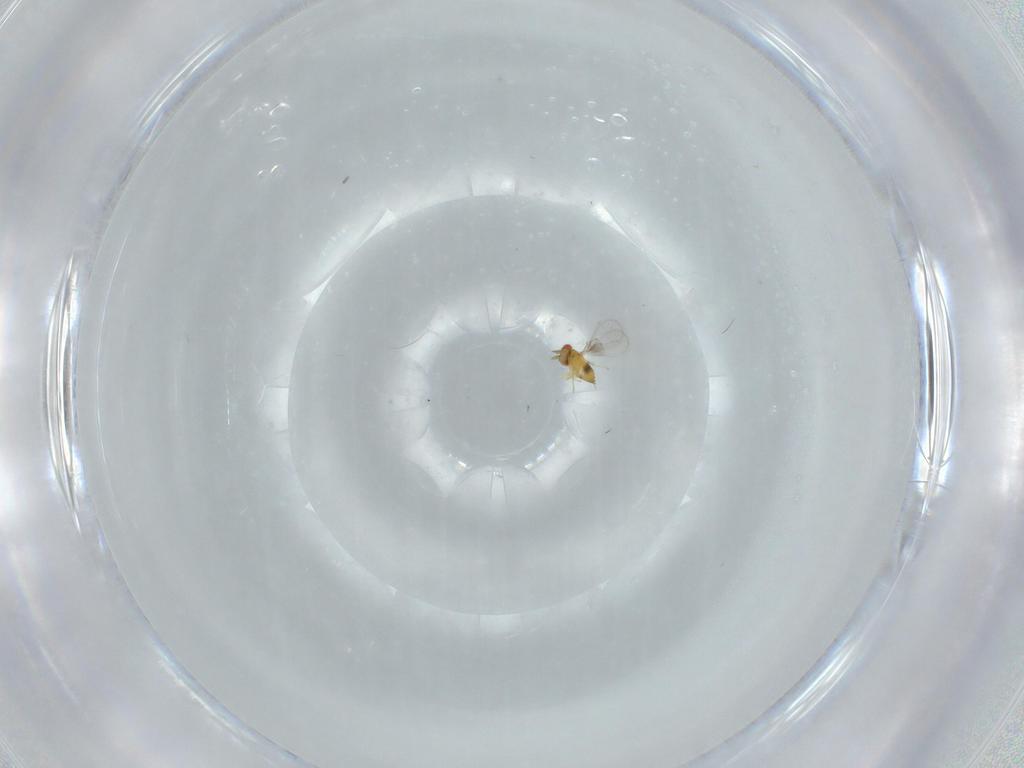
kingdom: Animalia
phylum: Arthropoda
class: Insecta
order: Hymenoptera
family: Trichogrammatidae
